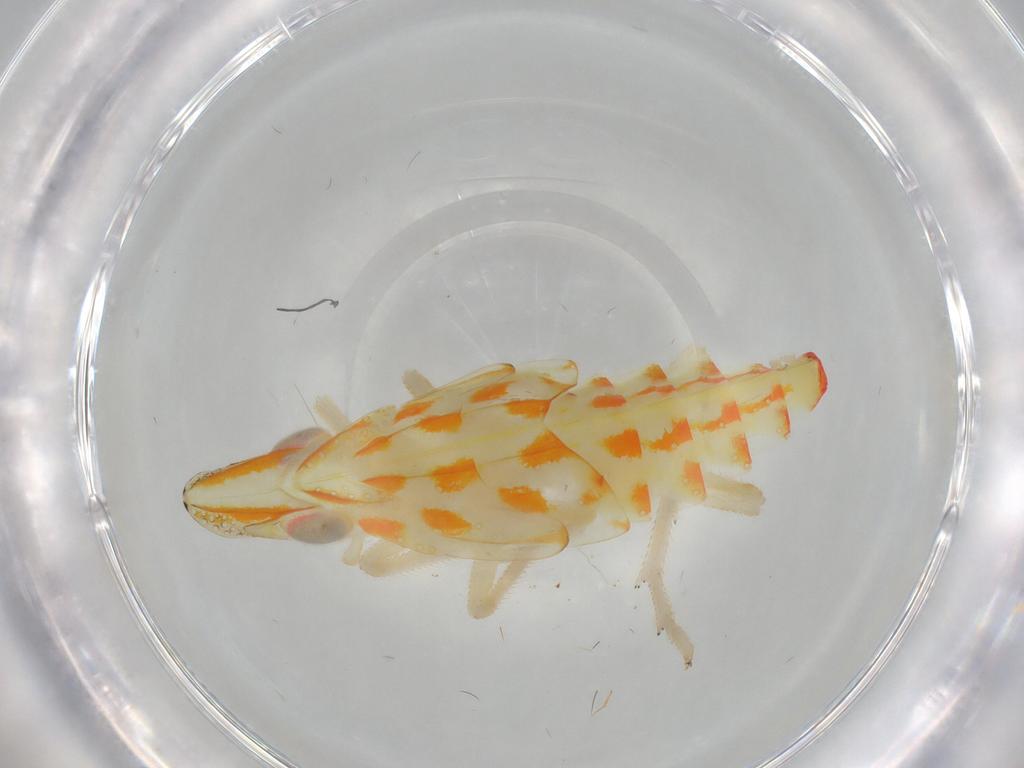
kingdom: Animalia
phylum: Arthropoda
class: Insecta
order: Hemiptera
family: Tropiduchidae
